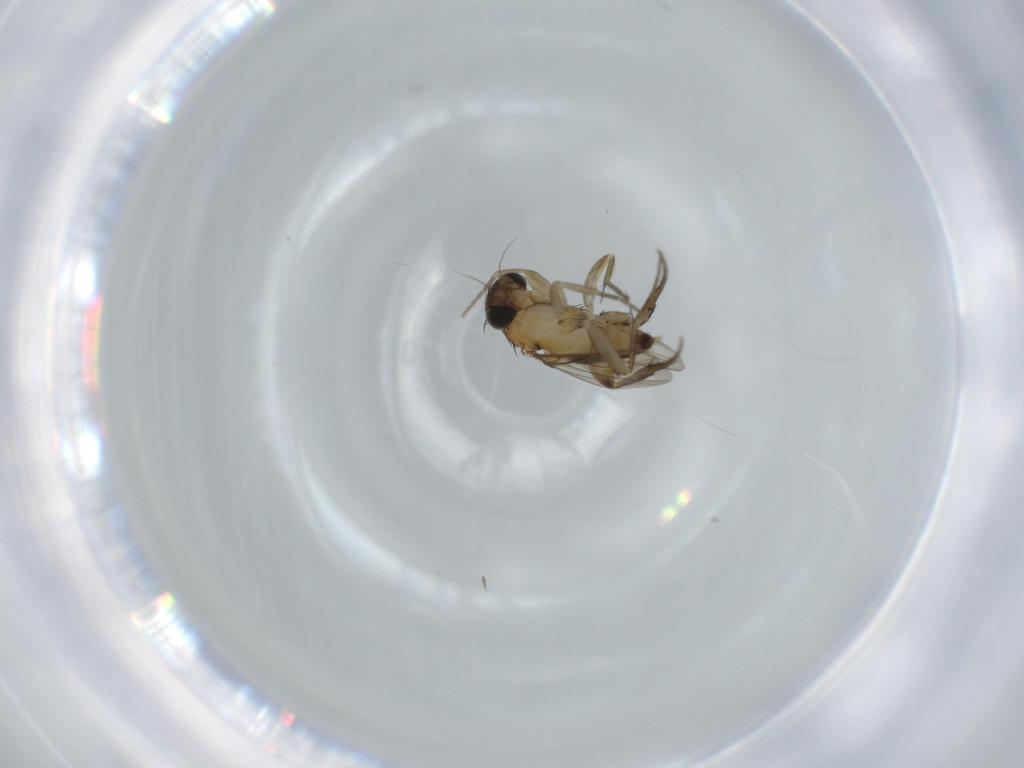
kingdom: Animalia
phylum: Arthropoda
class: Insecta
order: Diptera
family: Phoridae
